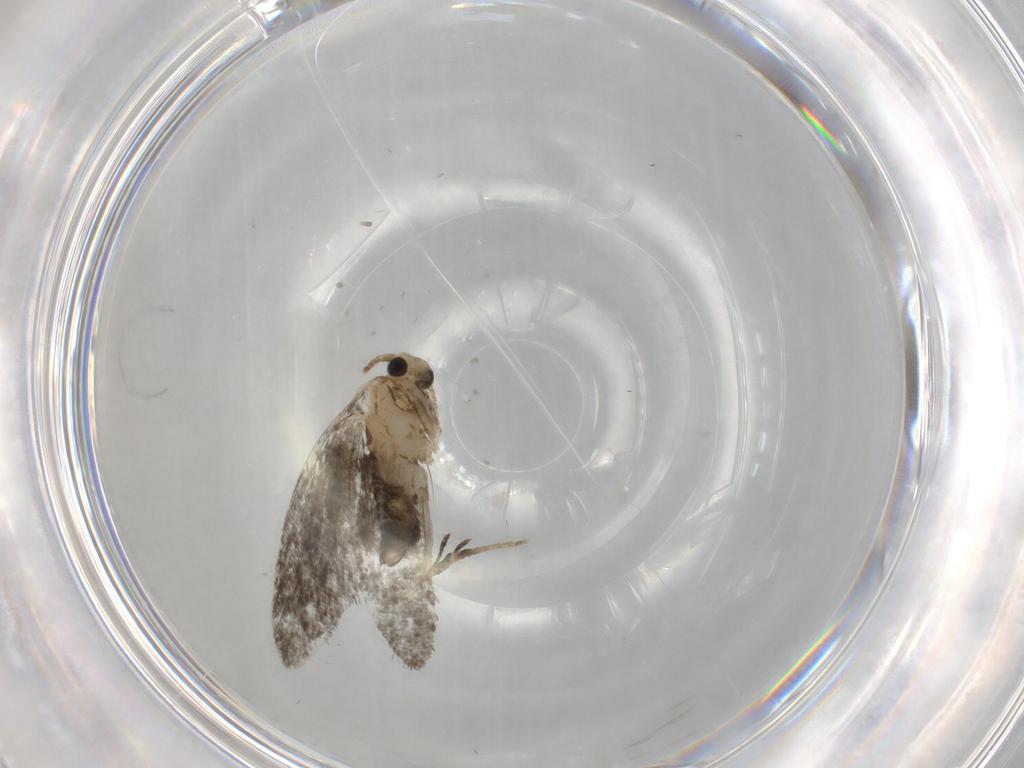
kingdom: Animalia
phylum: Arthropoda
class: Insecta
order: Lepidoptera
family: Psychidae
